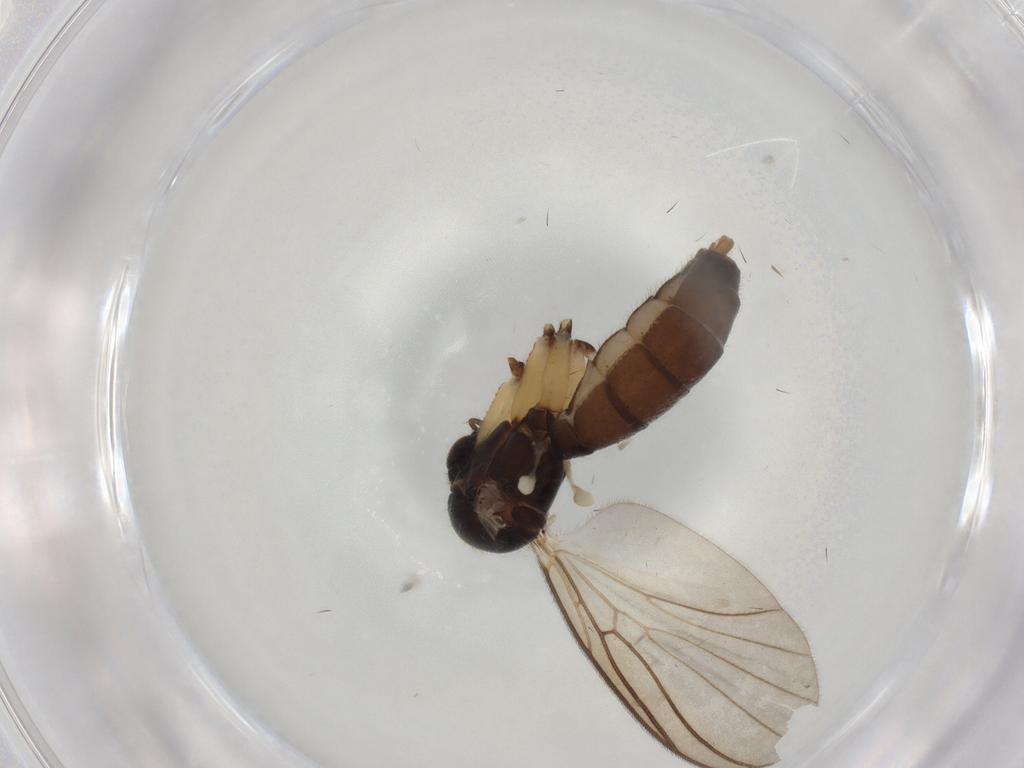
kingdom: Animalia
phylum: Arthropoda
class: Insecta
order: Diptera
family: Mycetophilidae
